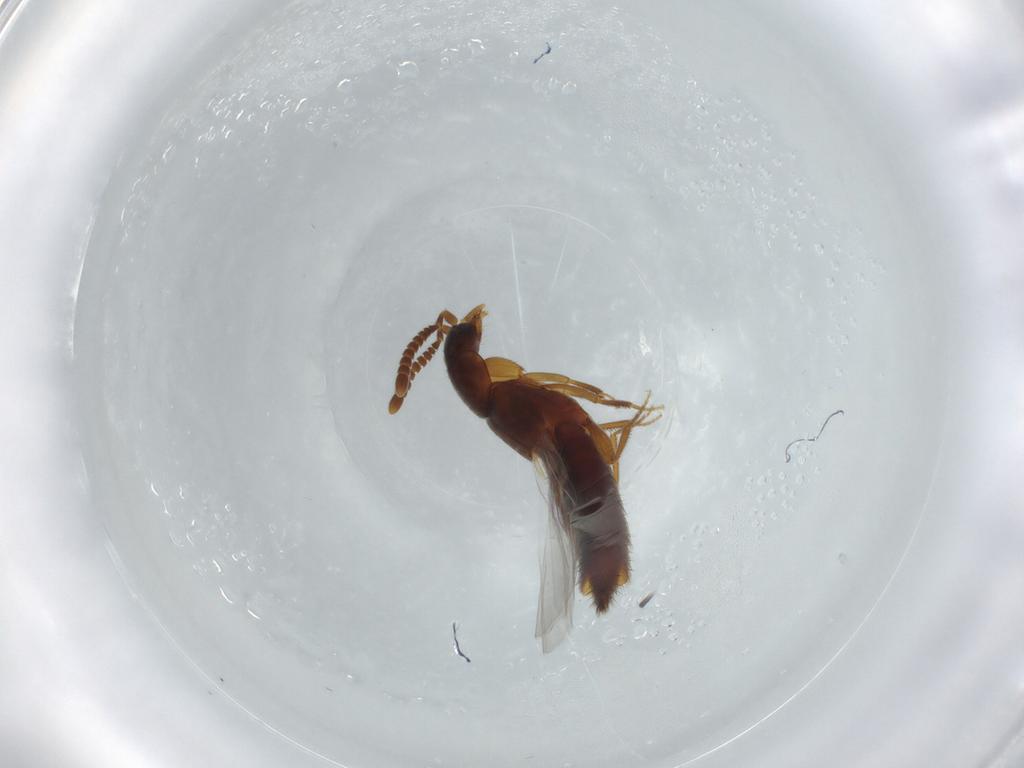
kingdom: Animalia
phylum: Arthropoda
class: Insecta
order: Coleoptera
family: Staphylinidae
